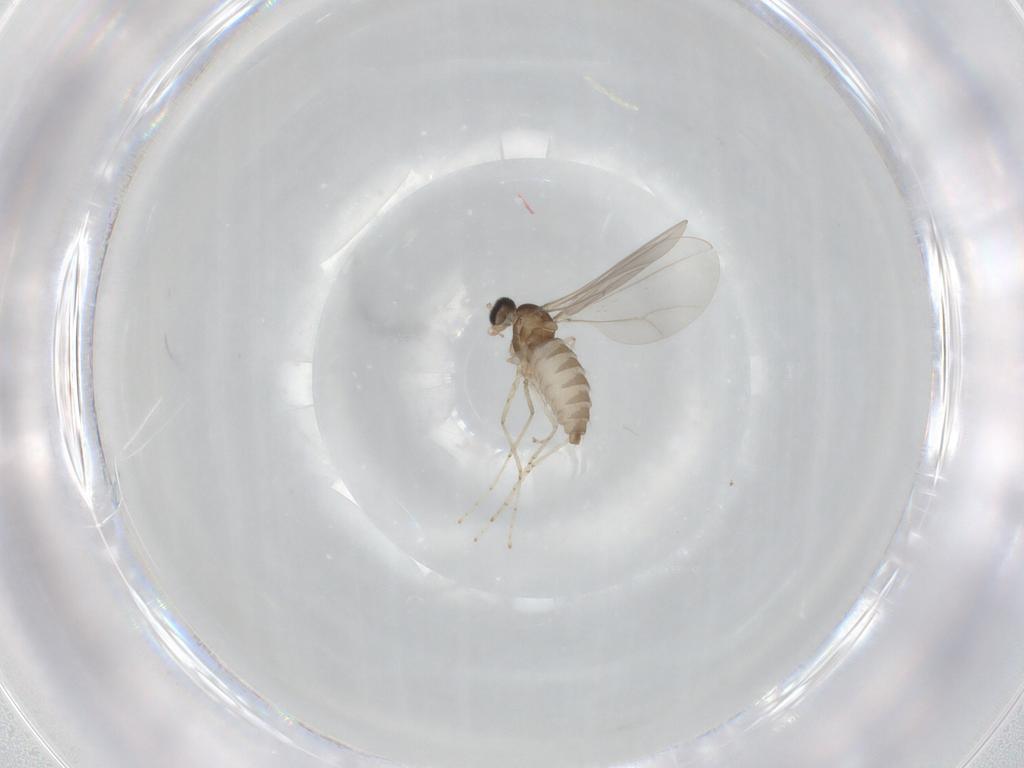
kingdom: Animalia
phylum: Arthropoda
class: Insecta
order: Diptera
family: Cecidomyiidae
